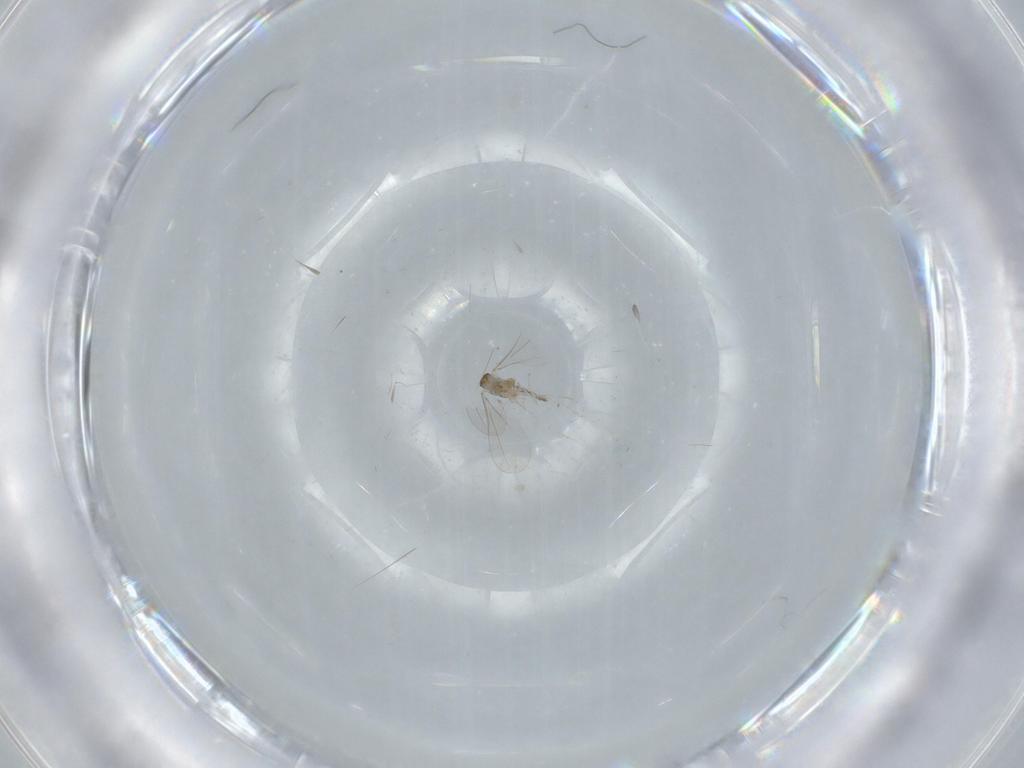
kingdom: Animalia
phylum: Arthropoda
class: Insecta
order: Diptera
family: Cecidomyiidae
